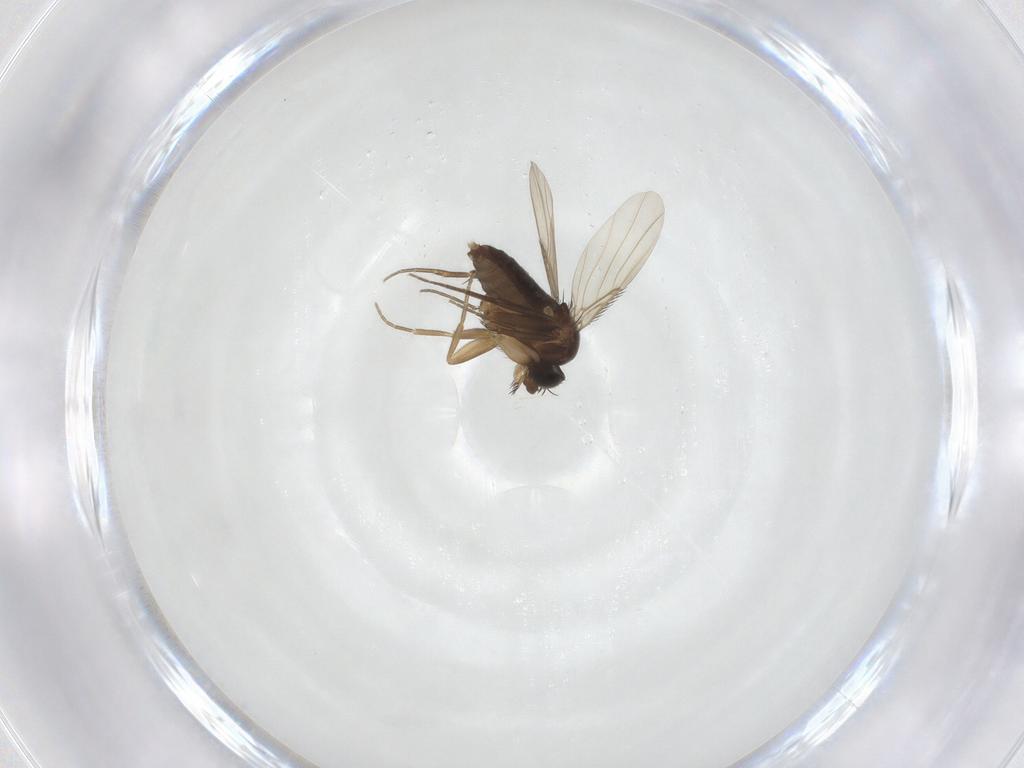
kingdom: Animalia
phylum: Arthropoda
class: Insecta
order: Diptera
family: Phoridae
